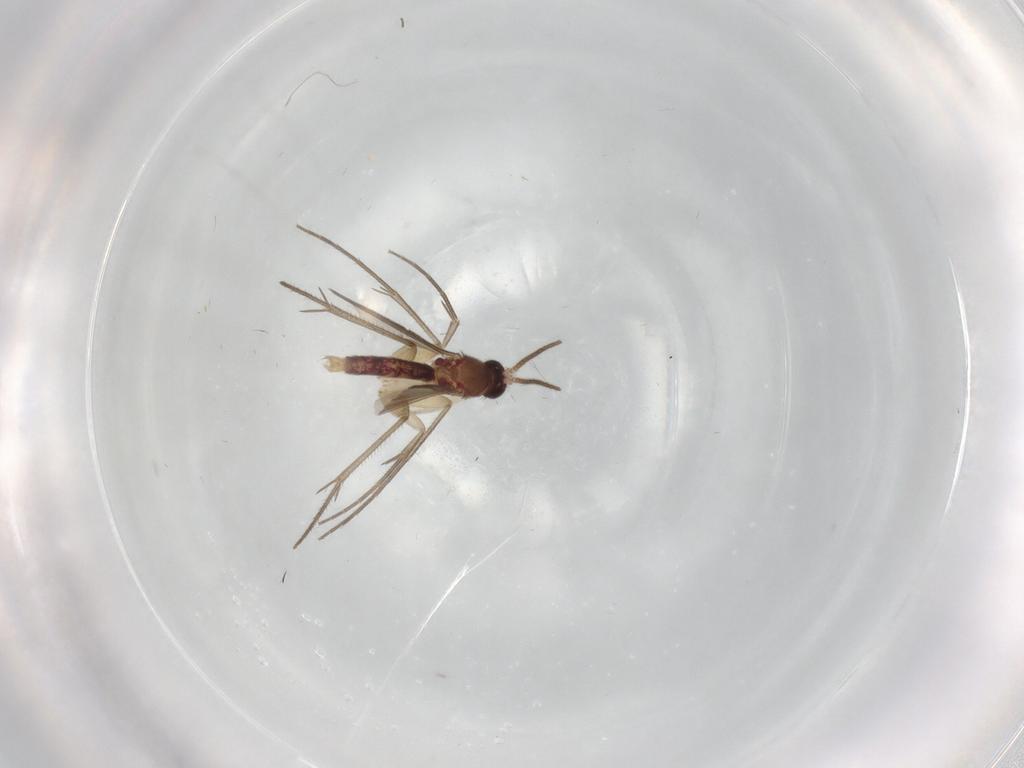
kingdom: Animalia
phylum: Arthropoda
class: Insecta
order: Diptera
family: Mycetophilidae
